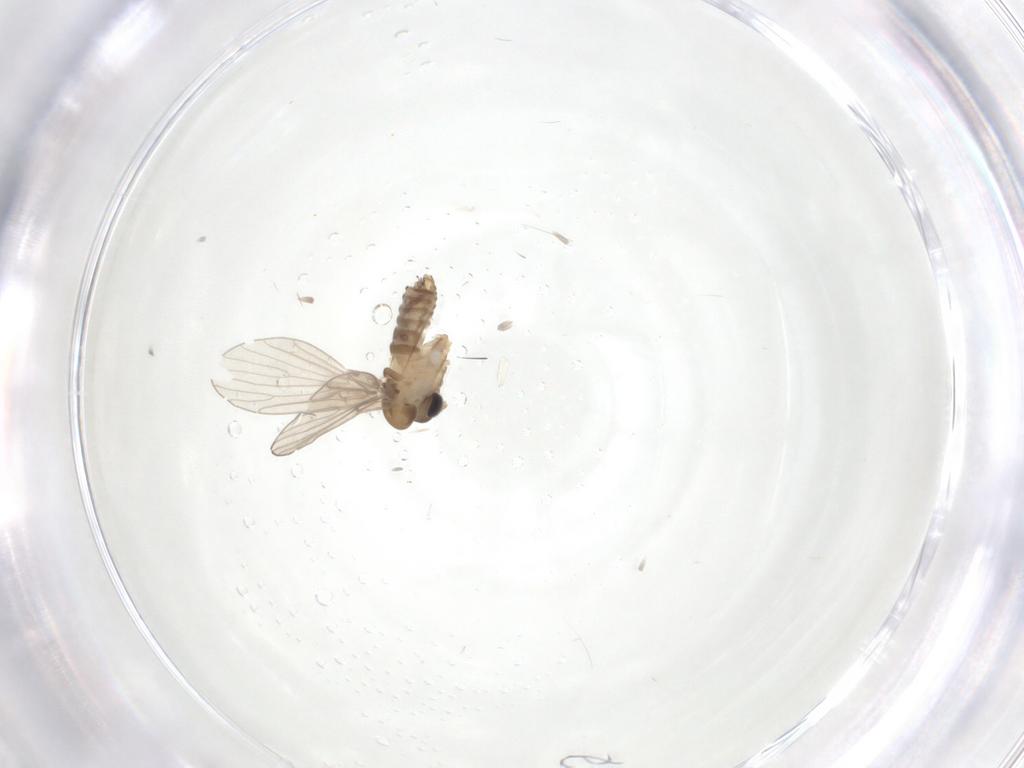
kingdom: Animalia
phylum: Arthropoda
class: Insecta
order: Diptera
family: Psychodidae
